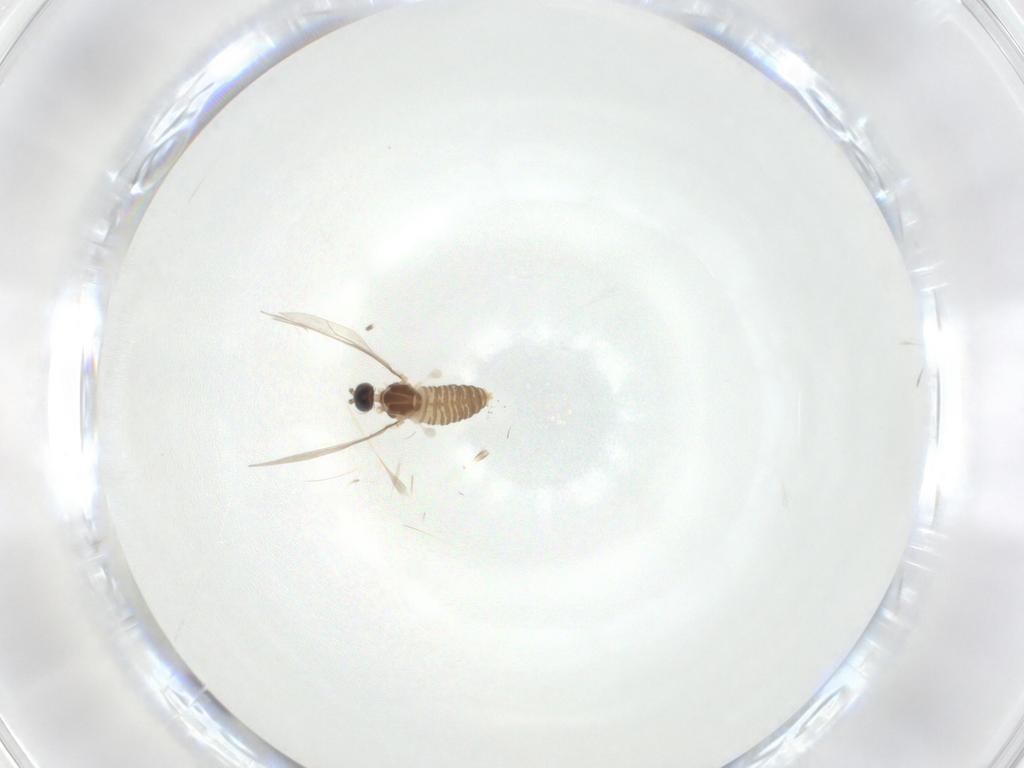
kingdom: Animalia
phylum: Arthropoda
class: Insecta
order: Diptera
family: Cecidomyiidae
